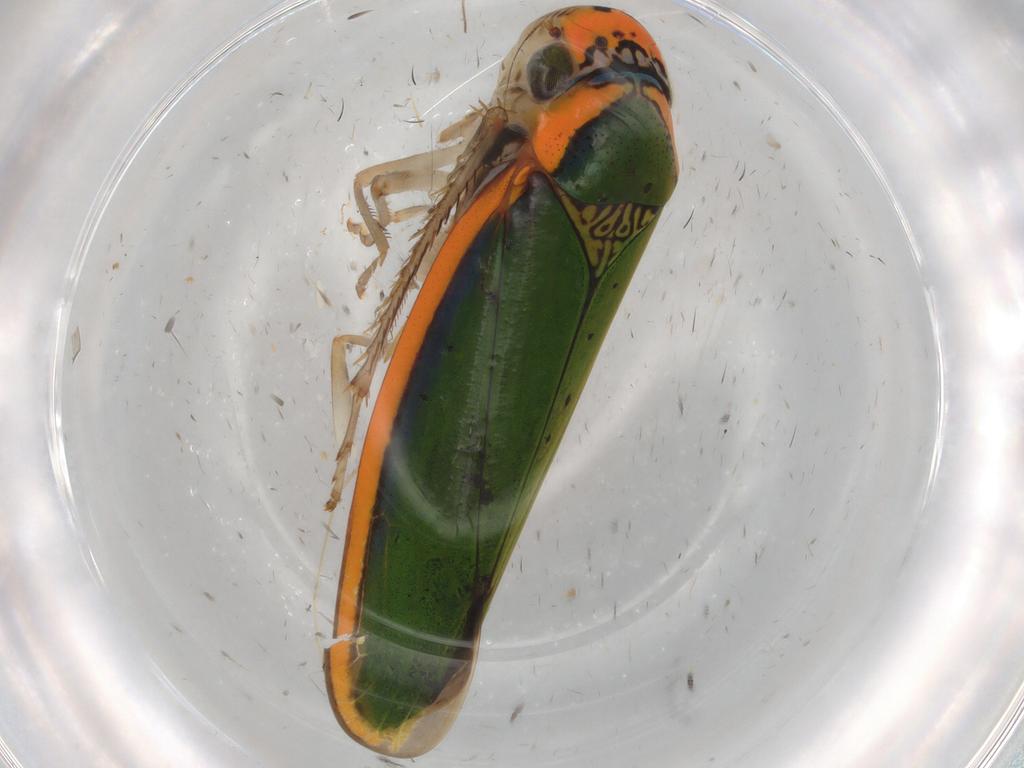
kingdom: Animalia
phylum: Arthropoda
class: Insecta
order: Hemiptera
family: Cicadellidae
